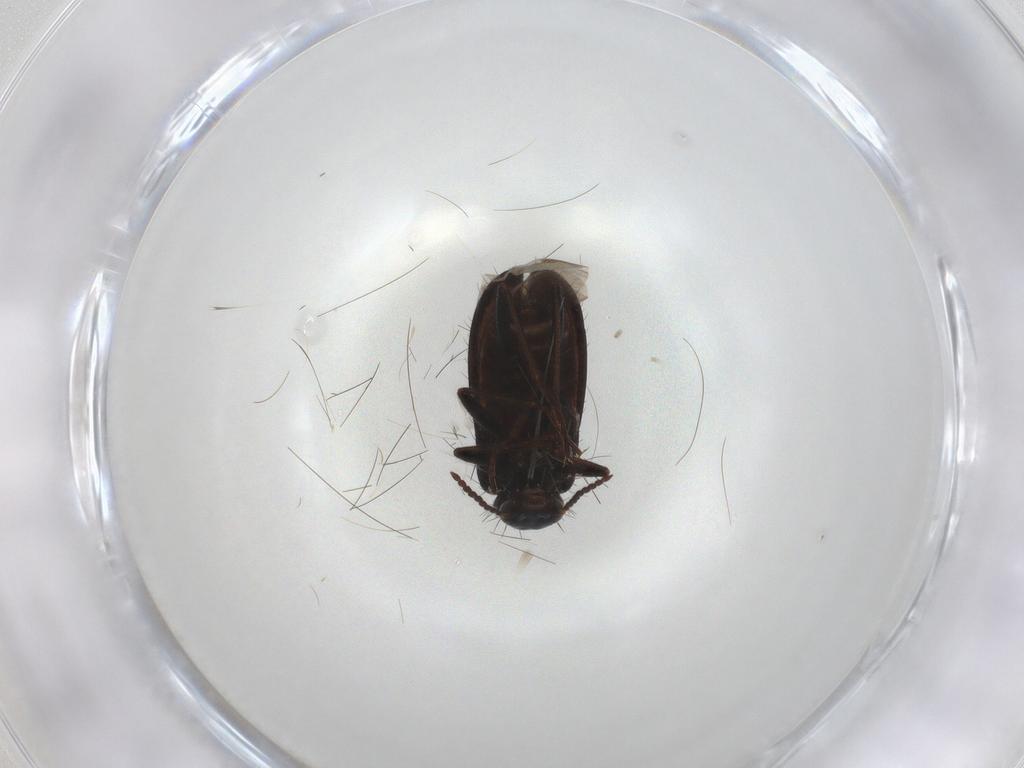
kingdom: Animalia
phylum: Arthropoda
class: Insecta
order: Coleoptera
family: Melyridae
